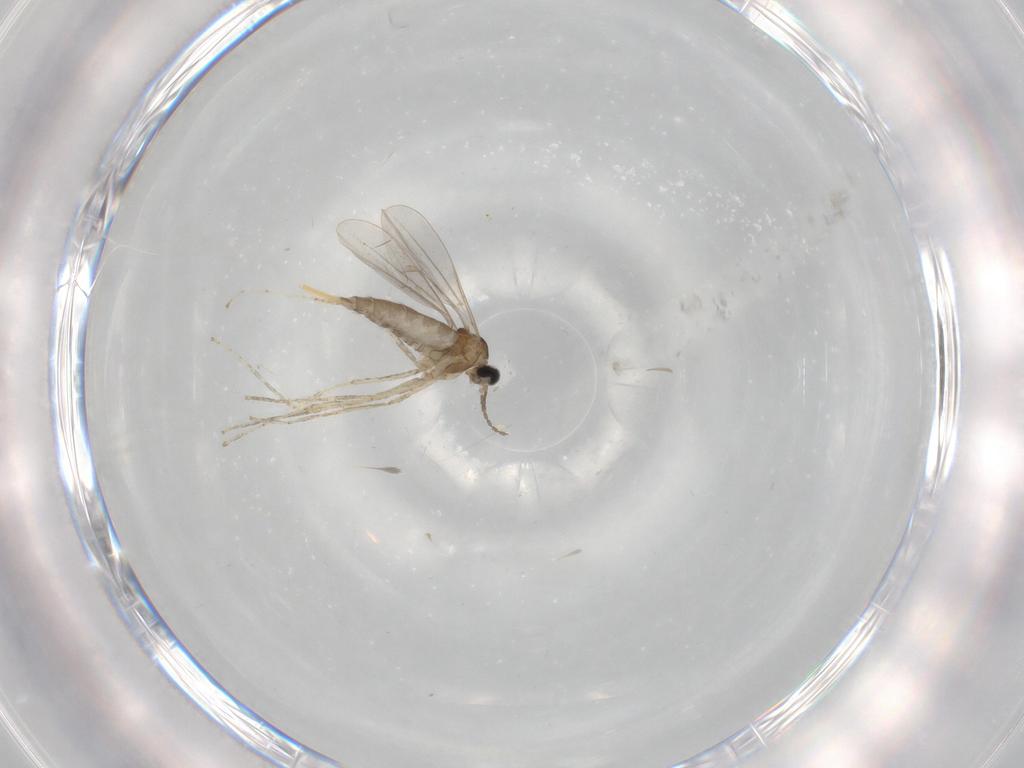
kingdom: Animalia
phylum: Arthropoda
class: Insecta
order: Diptera
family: Cecidomyiidae
